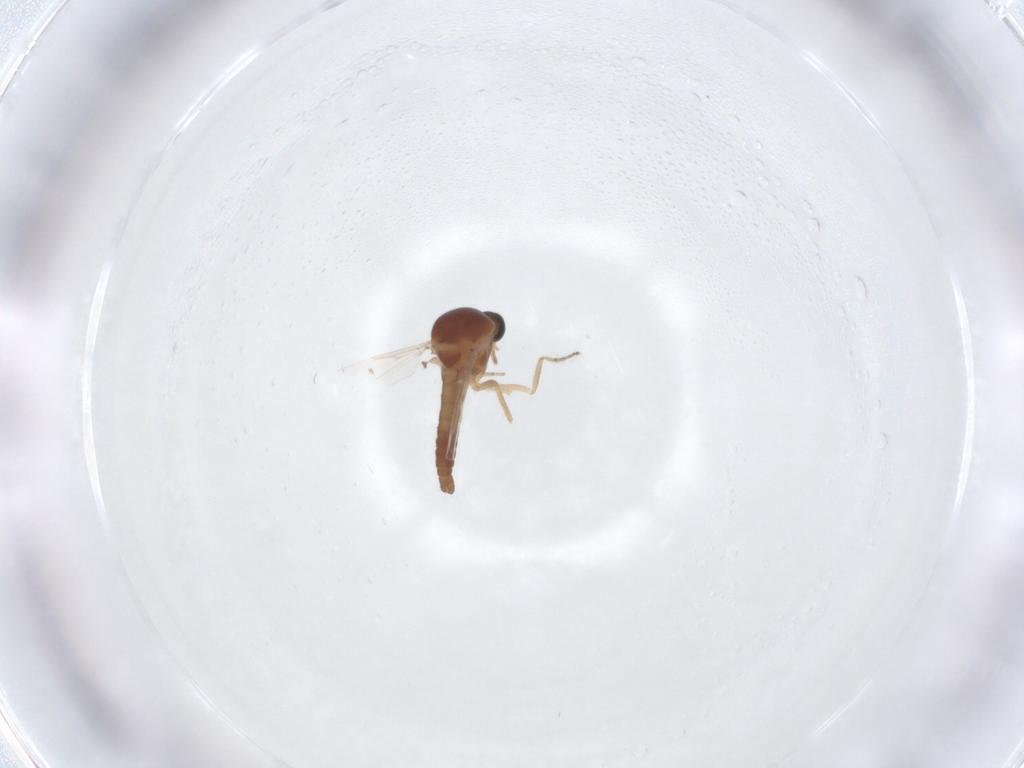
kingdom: Animalia
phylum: Arthropoda
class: Insecta
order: Diptera
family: Ceratopogonidae
